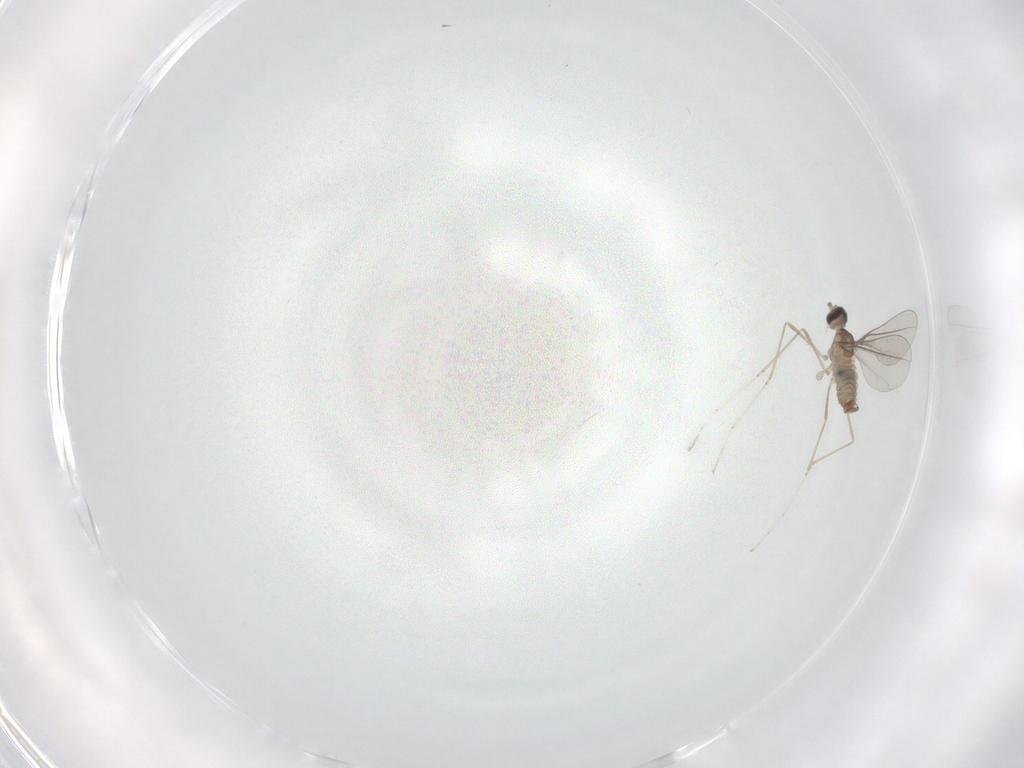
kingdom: Animalia
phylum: Arthropoda
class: Insecta
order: Diptera
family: Cecidomyiidae
